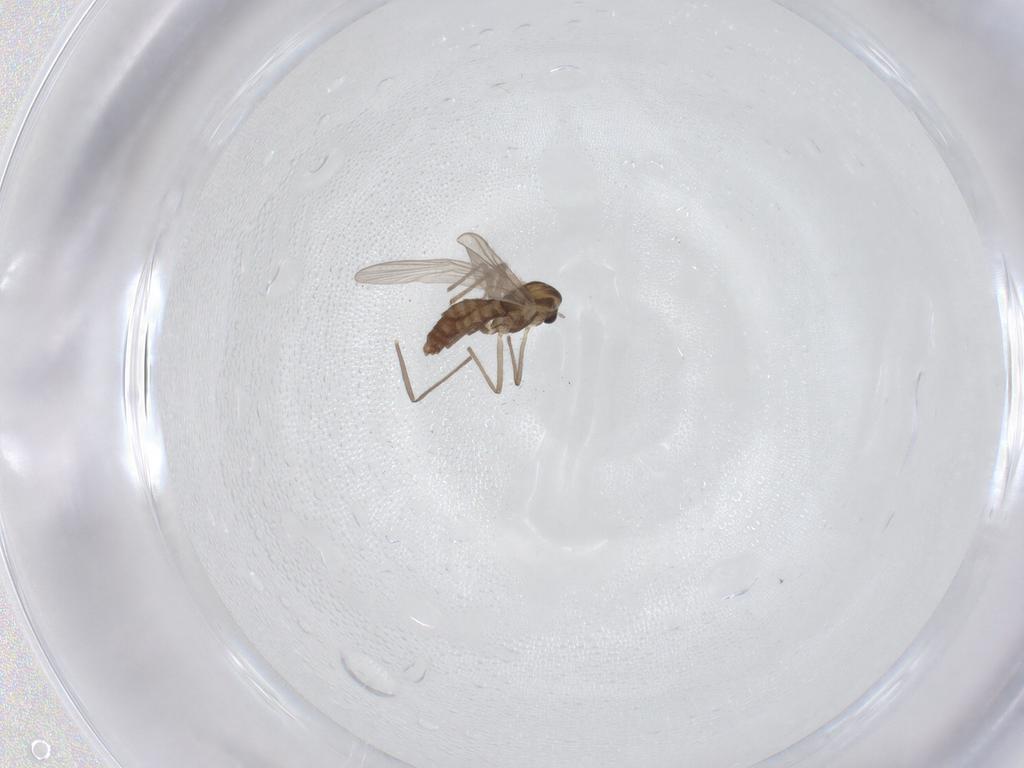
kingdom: Animalia
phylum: Arthropoda
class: Insecta
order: Diptera
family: Chironomidae
